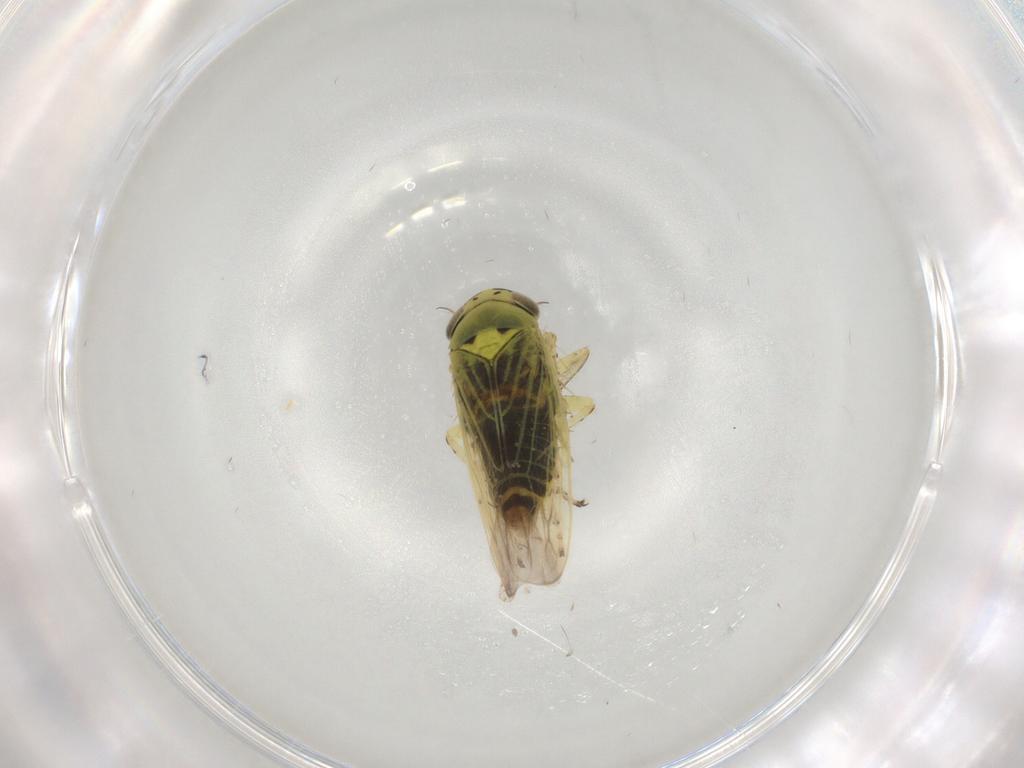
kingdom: Animalia
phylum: Arthropoda
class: Insecta
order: Hemiptera
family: Cicadellidae
